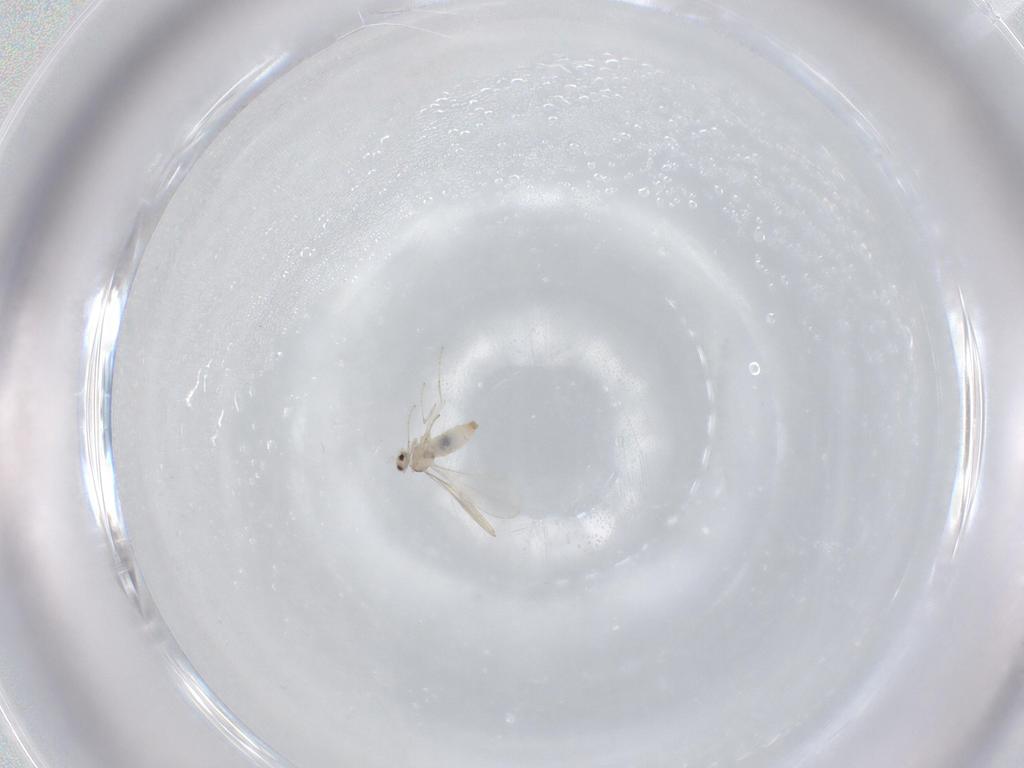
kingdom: Animalia
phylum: Arthropoda
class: Insecta
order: Diptera
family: Cecidomyiidae
